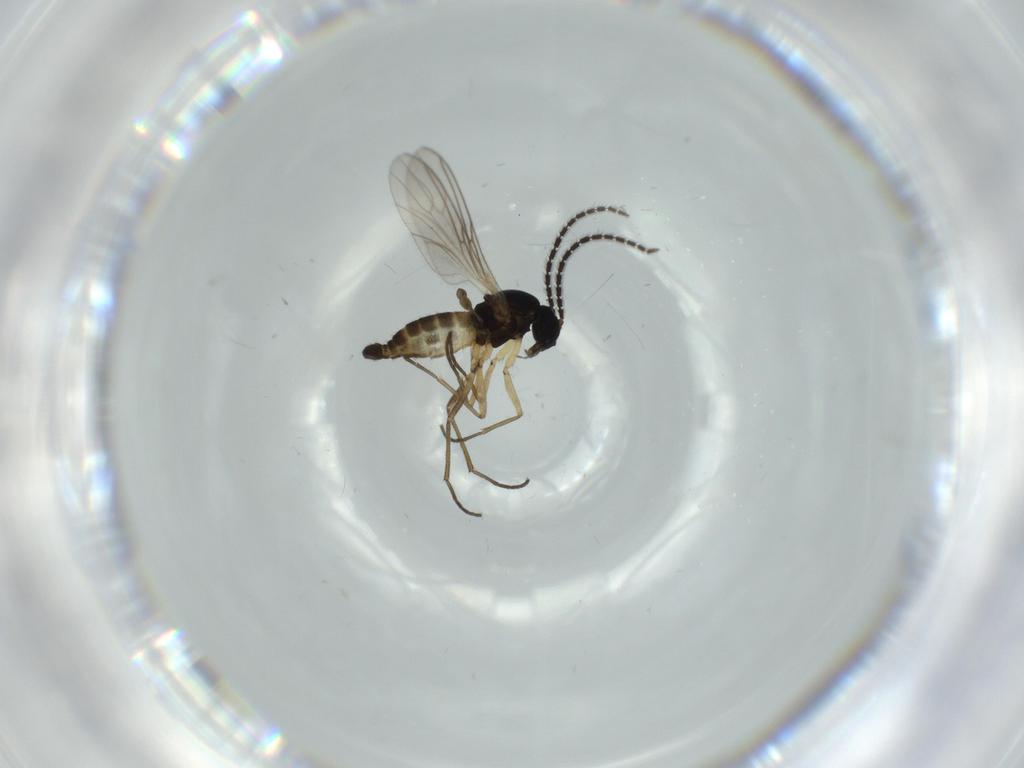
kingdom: Animalia
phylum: Arthropoda
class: Insecta
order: Diptera
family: Sciaridae
